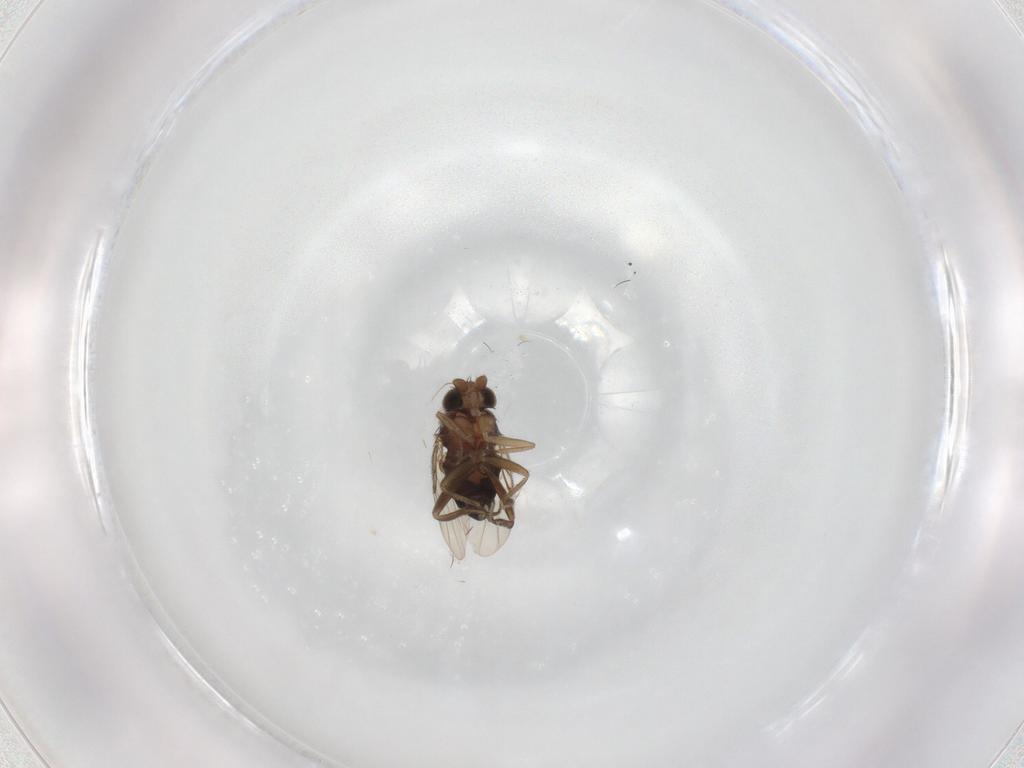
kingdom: Animalia
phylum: Arthropoda
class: Insecta
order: Diptera
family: Phoridae
